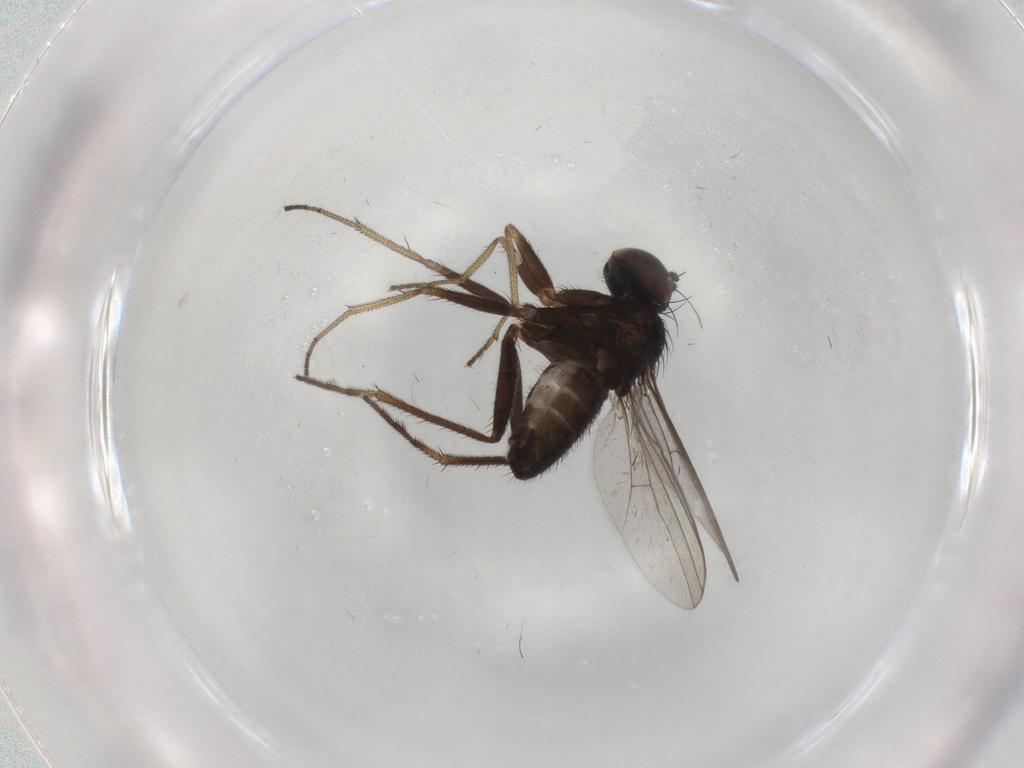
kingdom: Animalia
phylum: Arthropoda
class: Insecta
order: Diptera
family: Dolichopodidae
